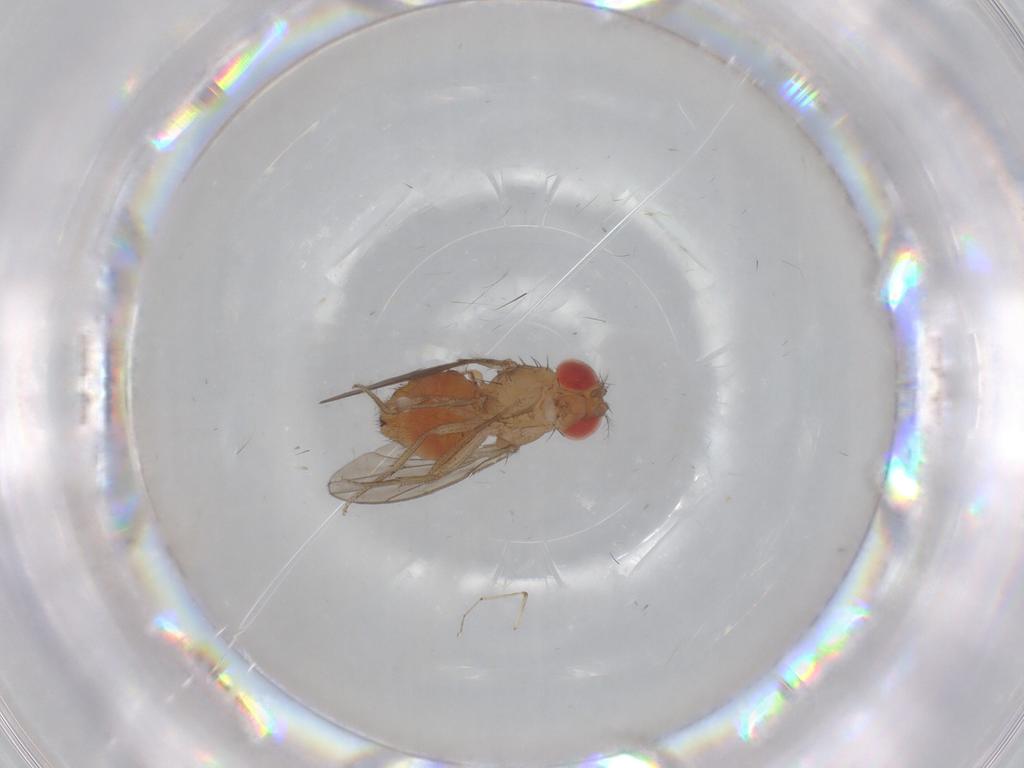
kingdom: Animalia
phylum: Arthropoda
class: Insecta
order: Diptera
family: Drosophilidae
